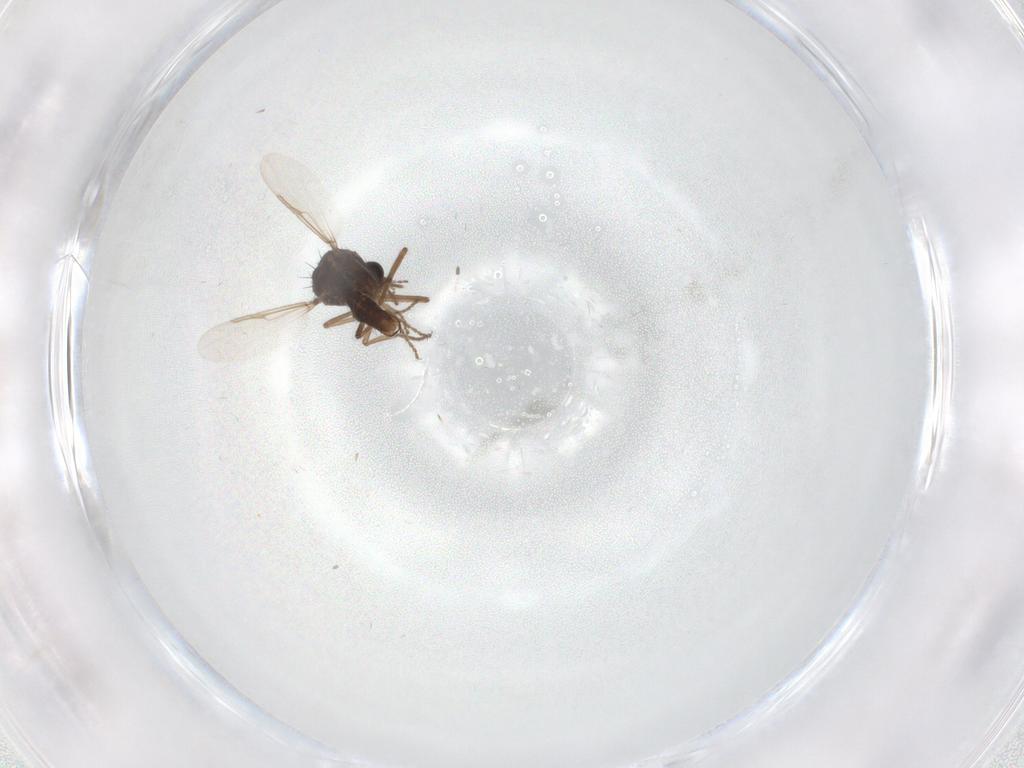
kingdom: Animalia
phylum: Arthropoda
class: Insecta
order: Diptera
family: Ceratopogonidae
